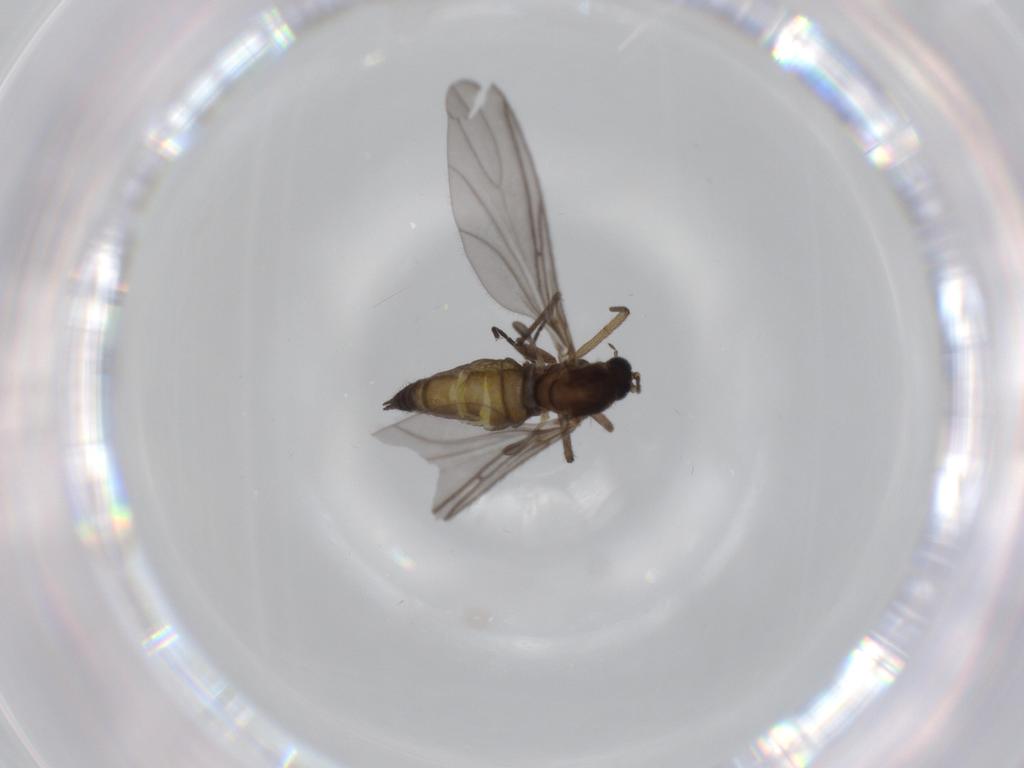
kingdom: Animalia
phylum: Arthropoda
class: Insecta
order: Diptera
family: Sciaridae
